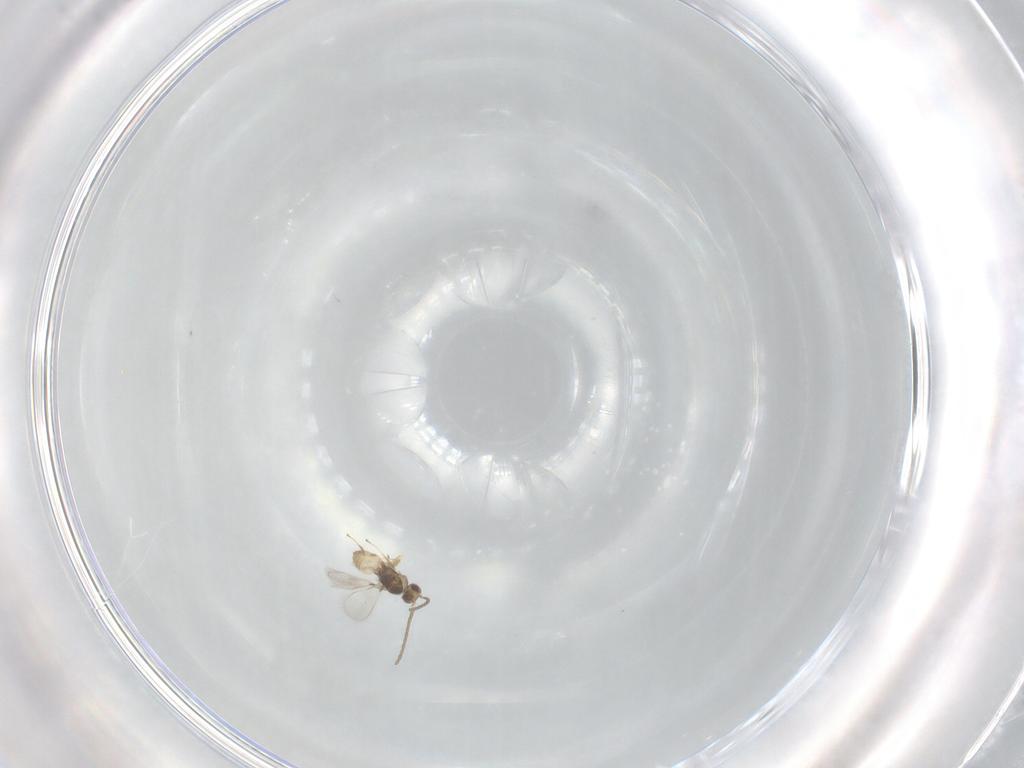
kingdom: Animalia
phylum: Arthropoda
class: Insecta
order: Hymenoptera
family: Mymaridae
